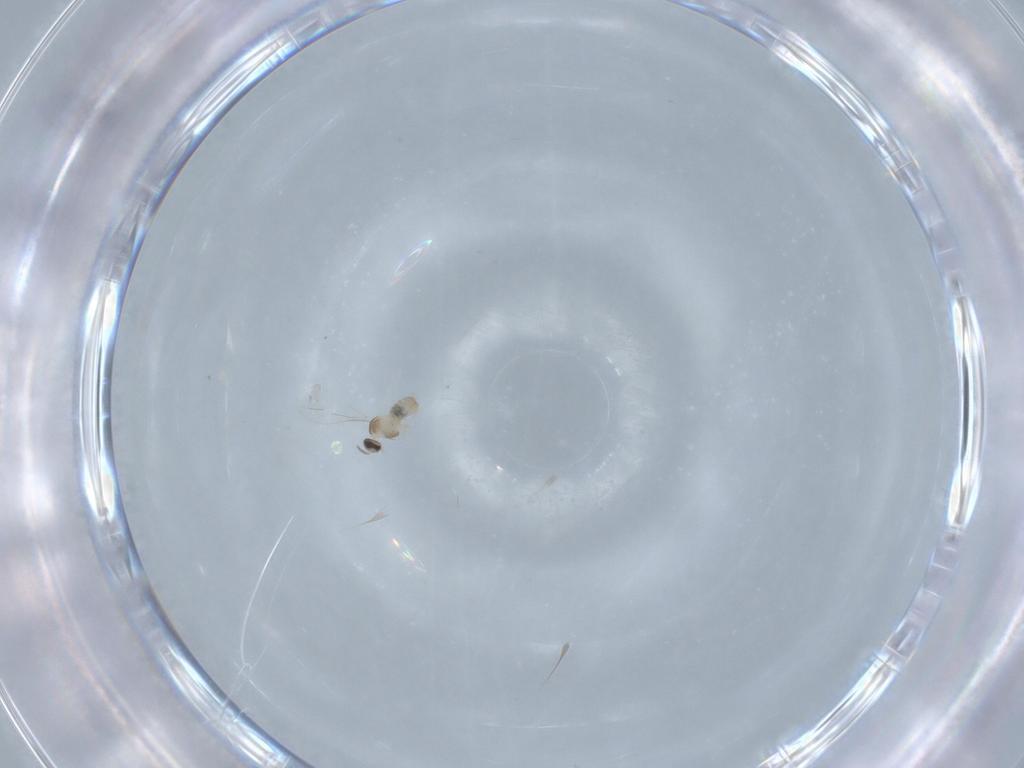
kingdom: Animalia
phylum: Arthropoda
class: Insecta
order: Diptera
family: Cecidomyiidae
